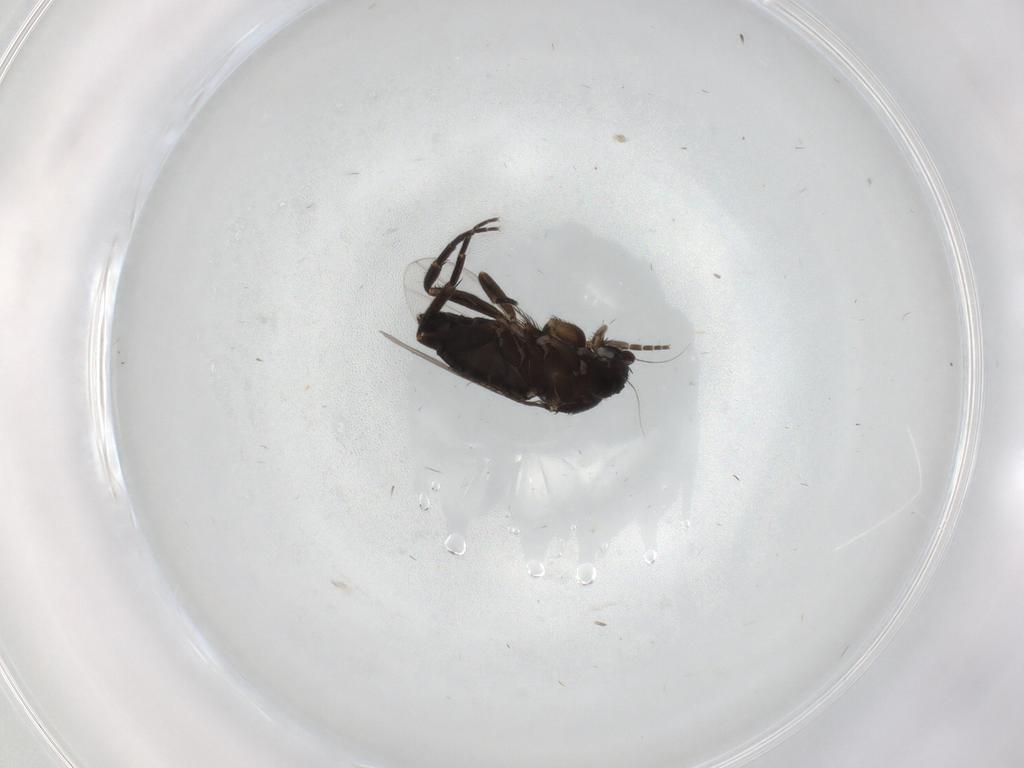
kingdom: Animalia
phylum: Arthropoda
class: Insecta
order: Diptera
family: Phoridae
